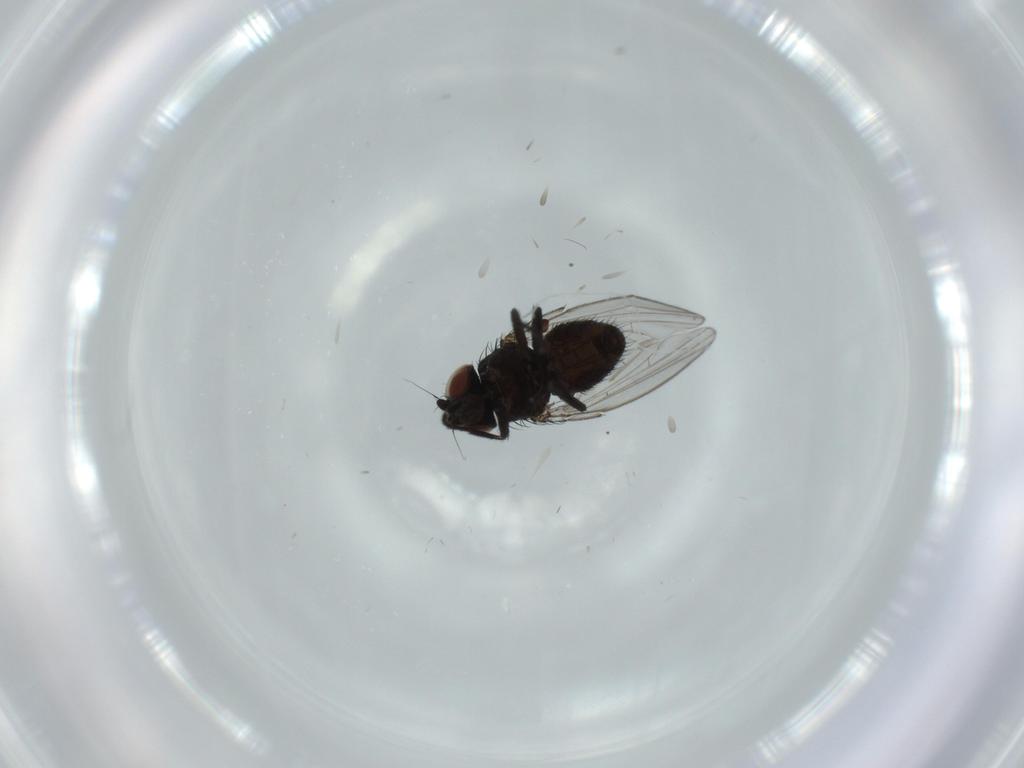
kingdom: Animalia
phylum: Arthropoda
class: Insecta
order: Diptera
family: Milichiidae
